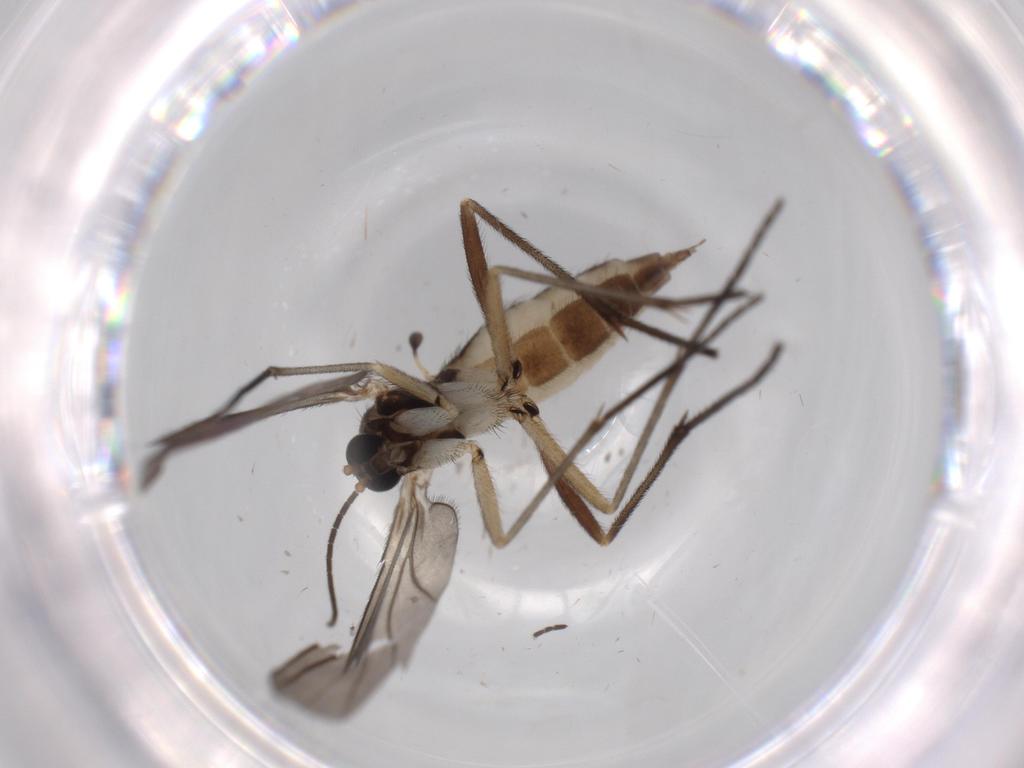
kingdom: Animalia
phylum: Arthropoda
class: Insecta
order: Diptera
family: Sciaridae
